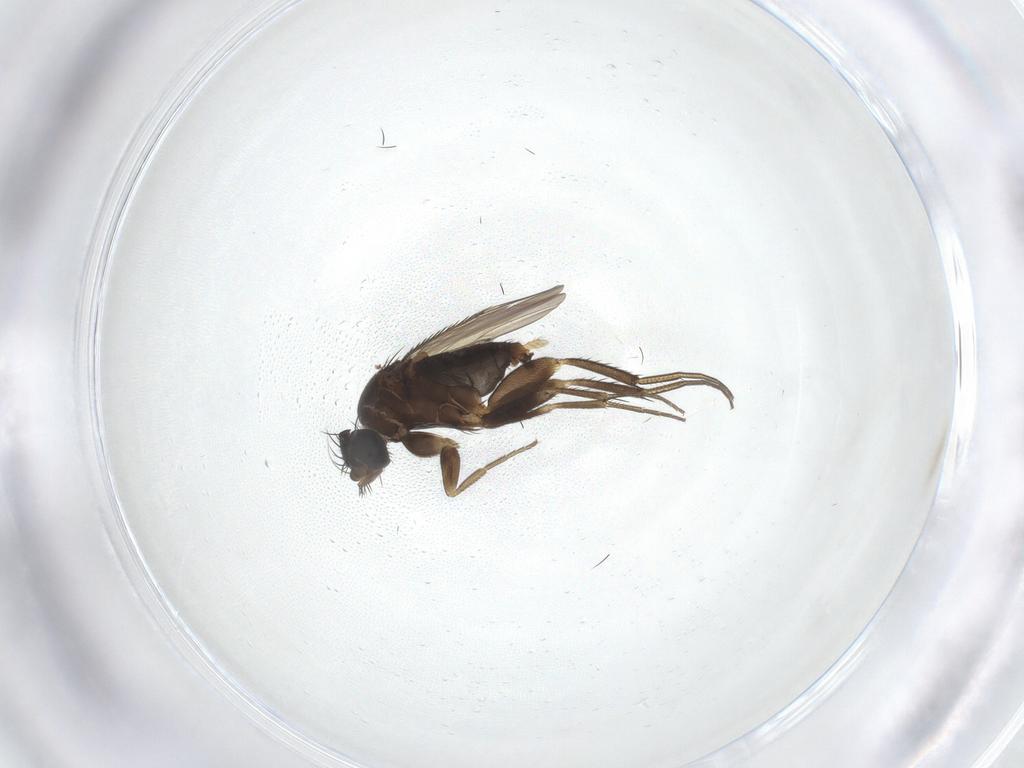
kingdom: Animalia
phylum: Arthropoda
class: Insecta
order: Diptera
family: Phoridae
